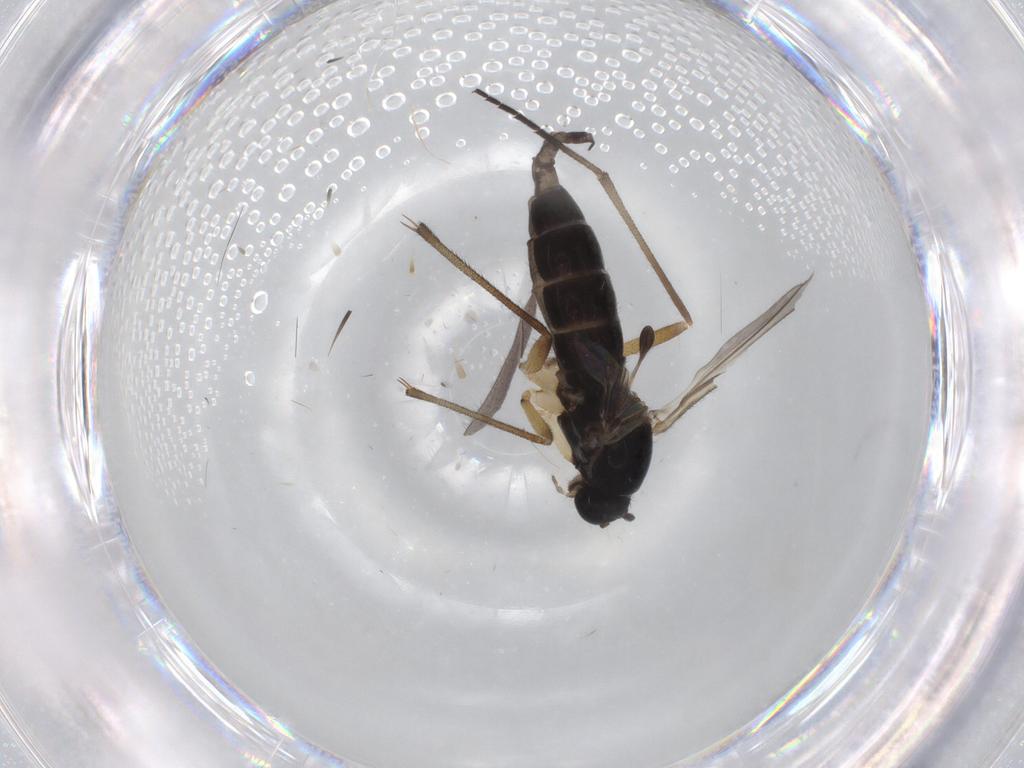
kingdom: Animalia
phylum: Arthropoda
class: Insecta
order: Diptera
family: Sciaridae
